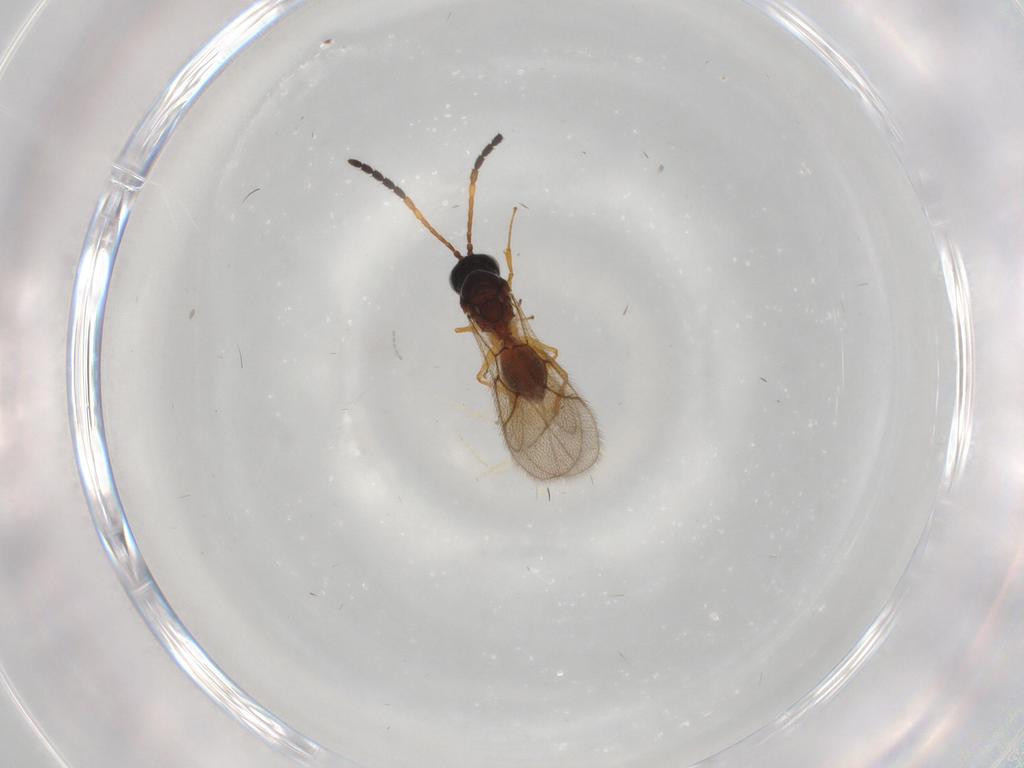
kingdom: Animalia
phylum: Arthropoda
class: Insecta
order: Hymenoptera
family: Figitidae
